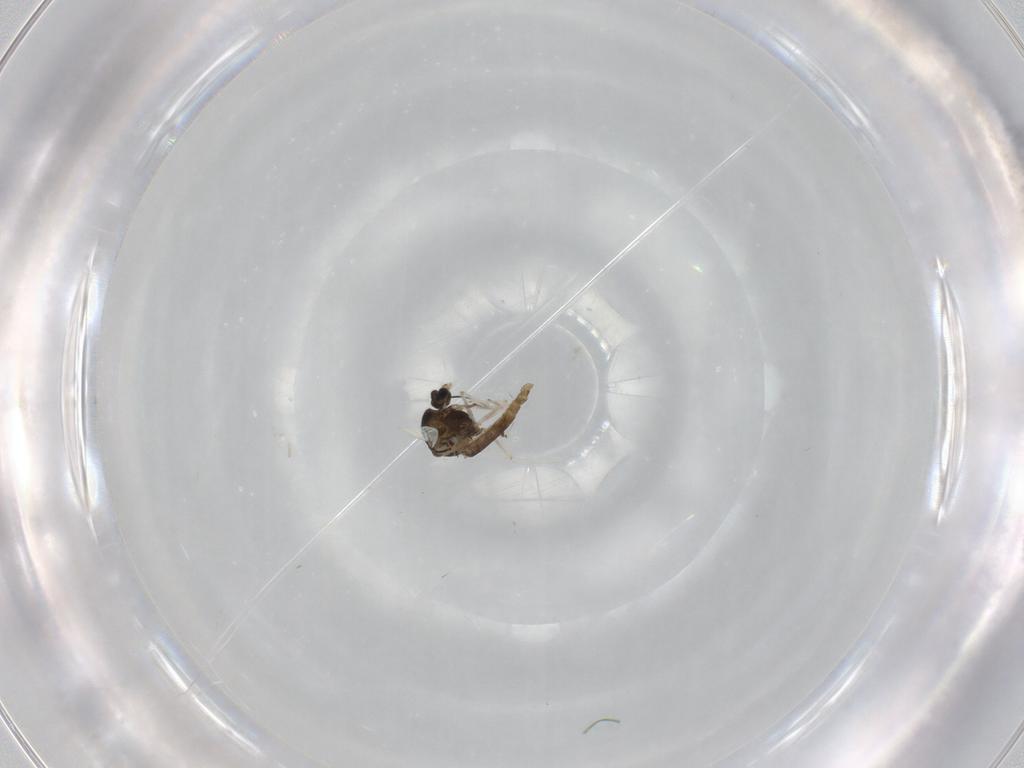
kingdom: Animalia
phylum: Arthropoda
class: Insecta
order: Diptera
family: Chironomidae
